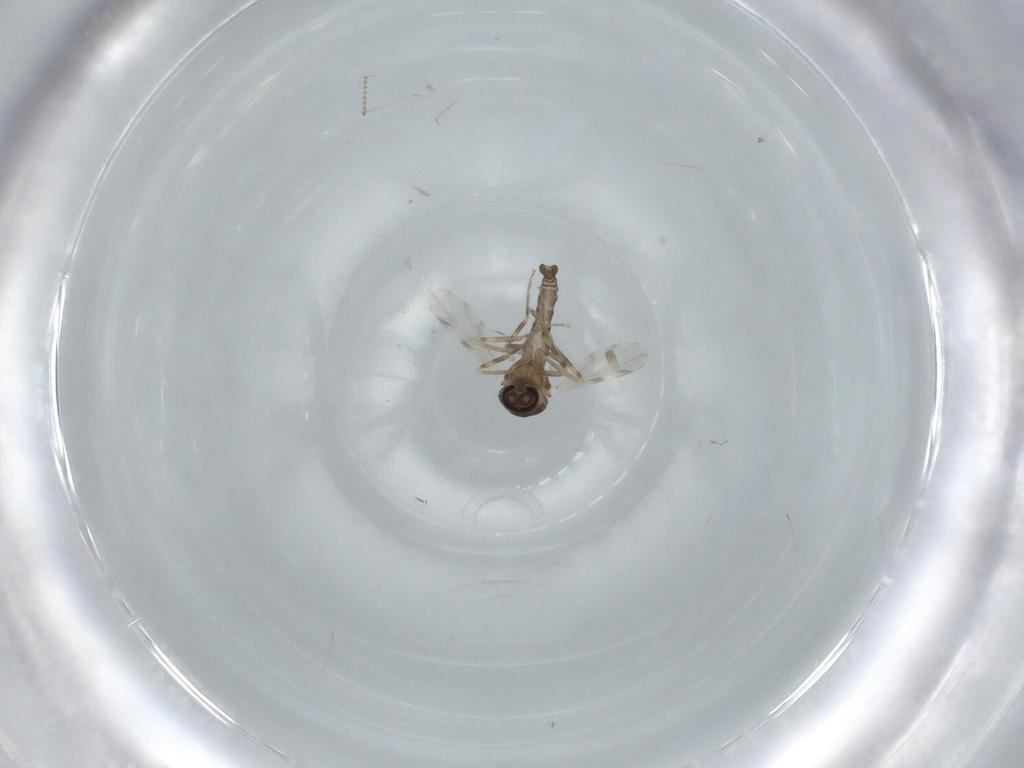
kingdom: Animalia
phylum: Arthropoda
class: Insecta
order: Diptera
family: Ceratopogonidae
